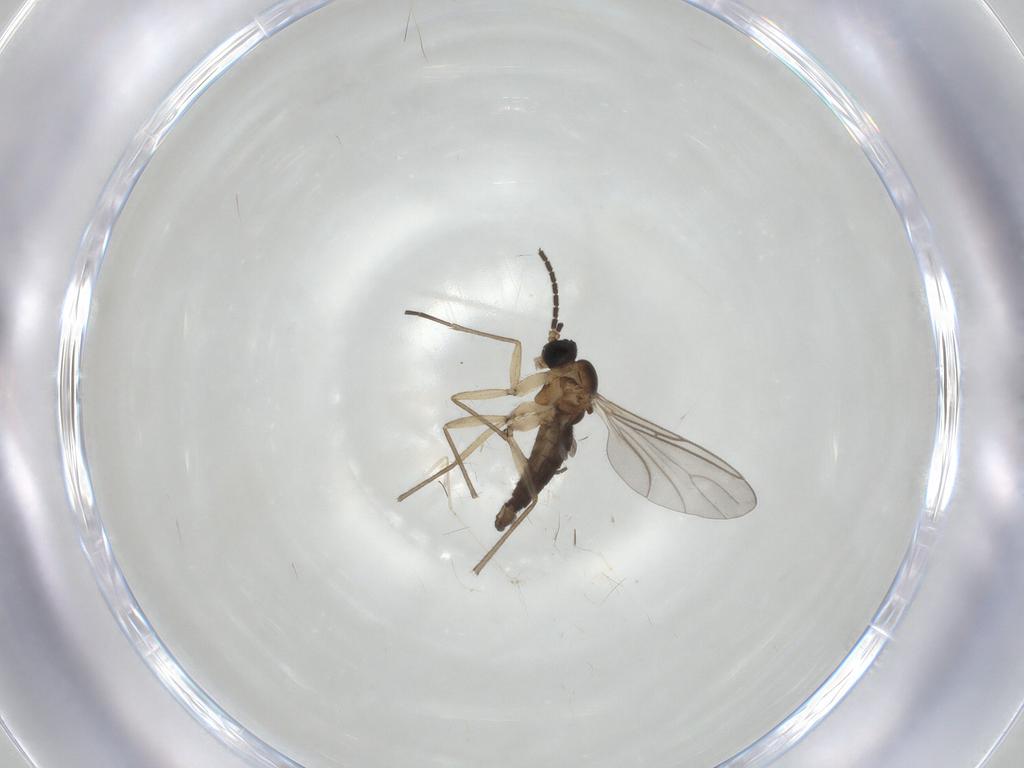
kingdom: Animalia
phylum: Arthropoda
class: Insecta
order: Diptera
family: Sciaridae
